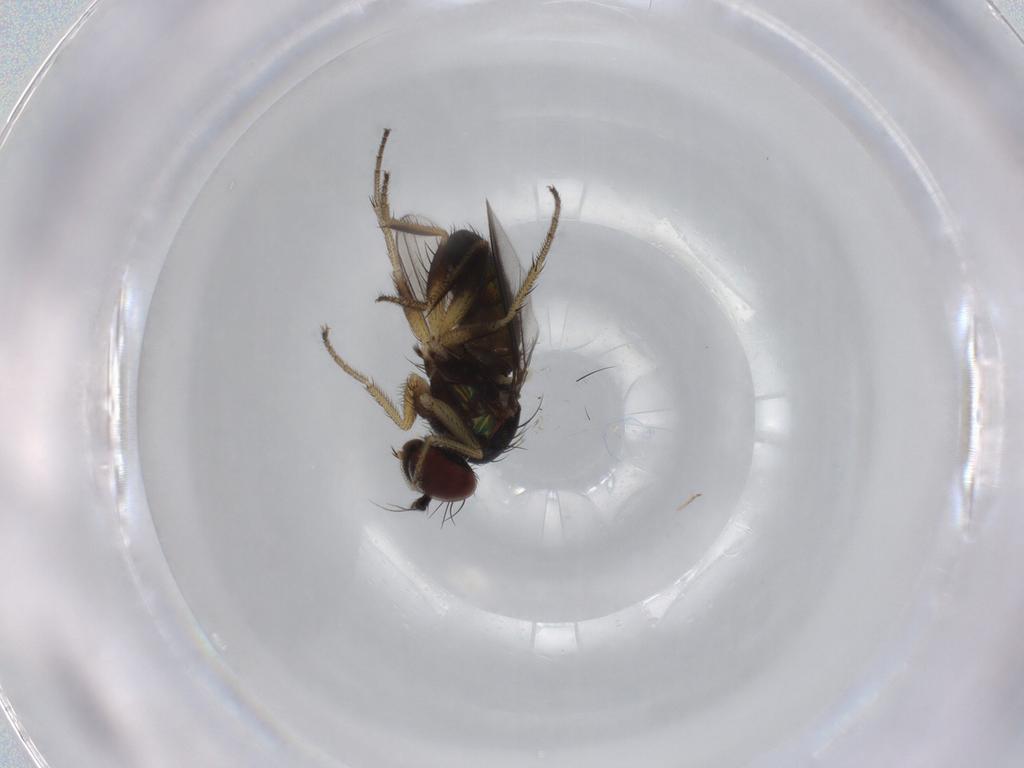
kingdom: Animalia
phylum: Arthropoda
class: Insecta
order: Diptera
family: Dolichopodidae
